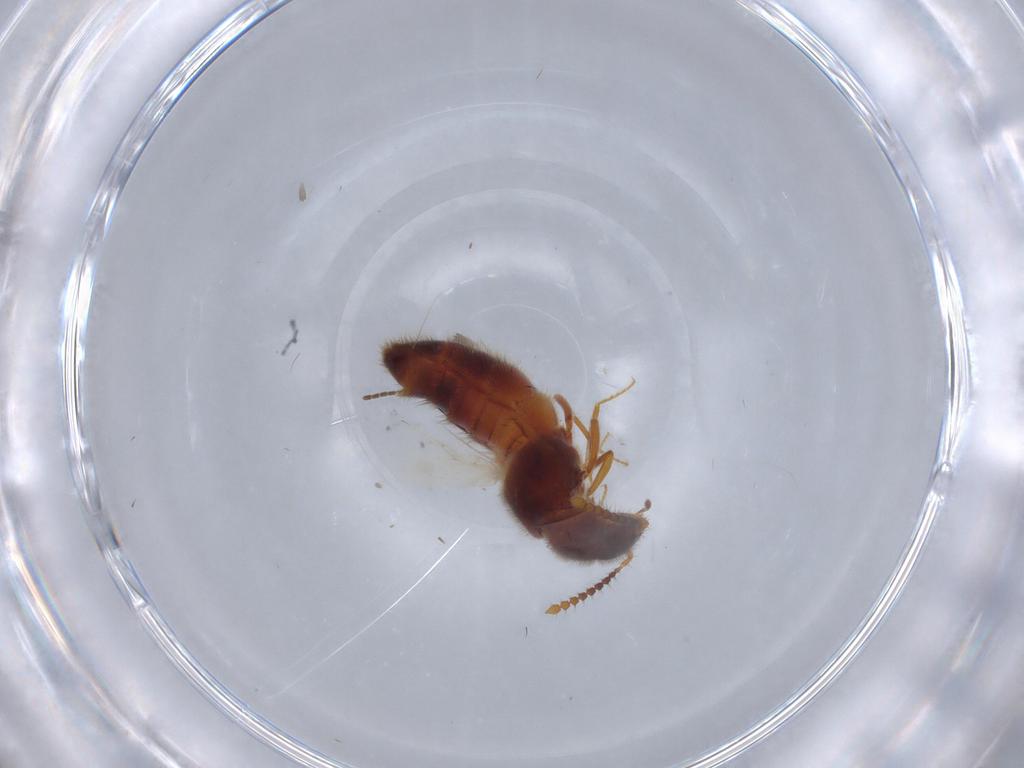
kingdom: Animalia
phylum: Arthropoda
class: Insecta
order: Coleoptera
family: Staphylinidae
